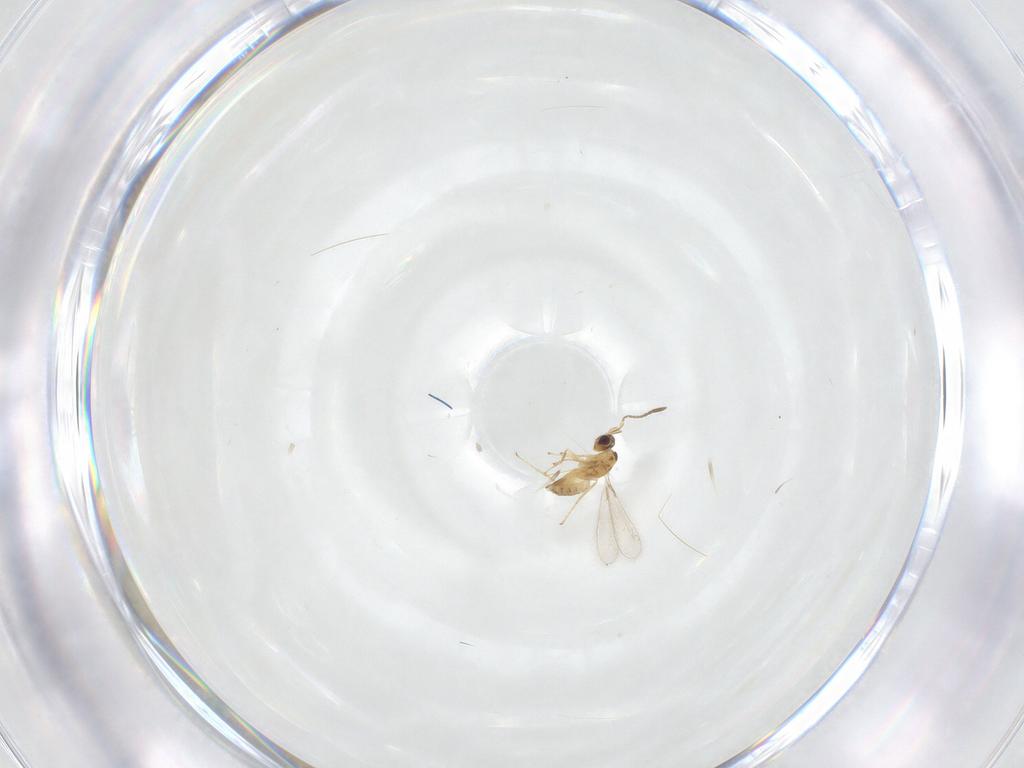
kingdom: Animalia
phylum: Arthropoda
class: Insecta
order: Hymenoptera
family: Mymaridae
